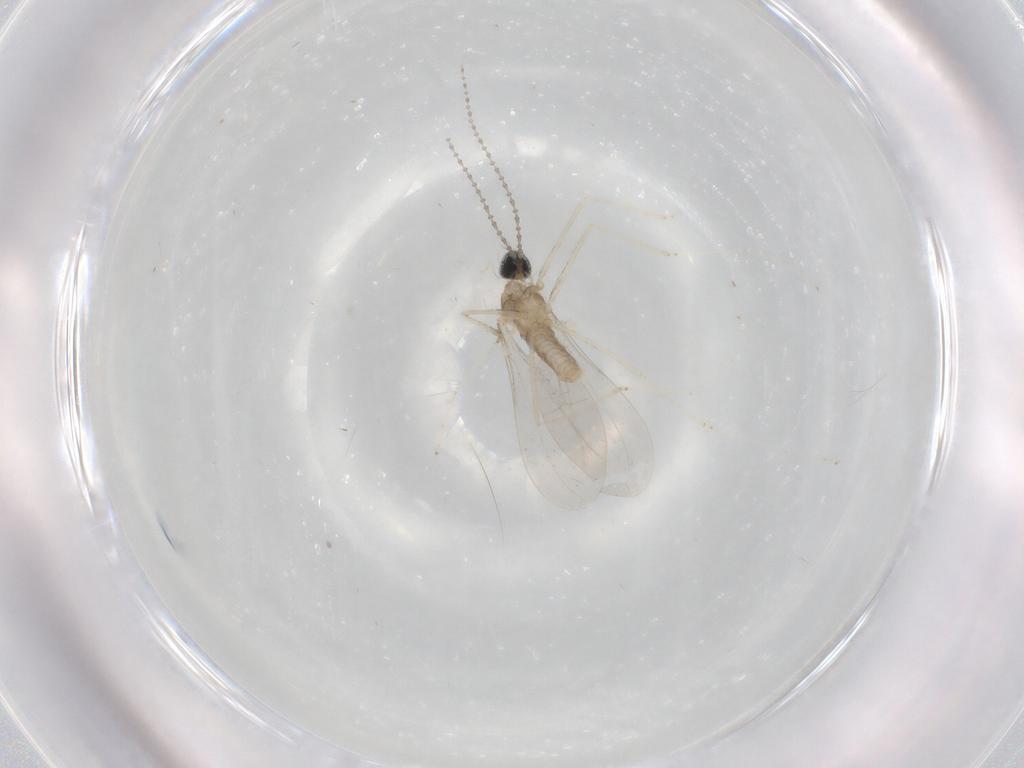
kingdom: Animalia
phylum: Arthropoda
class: Insecta
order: Diptera
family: Cecidomyiidae
